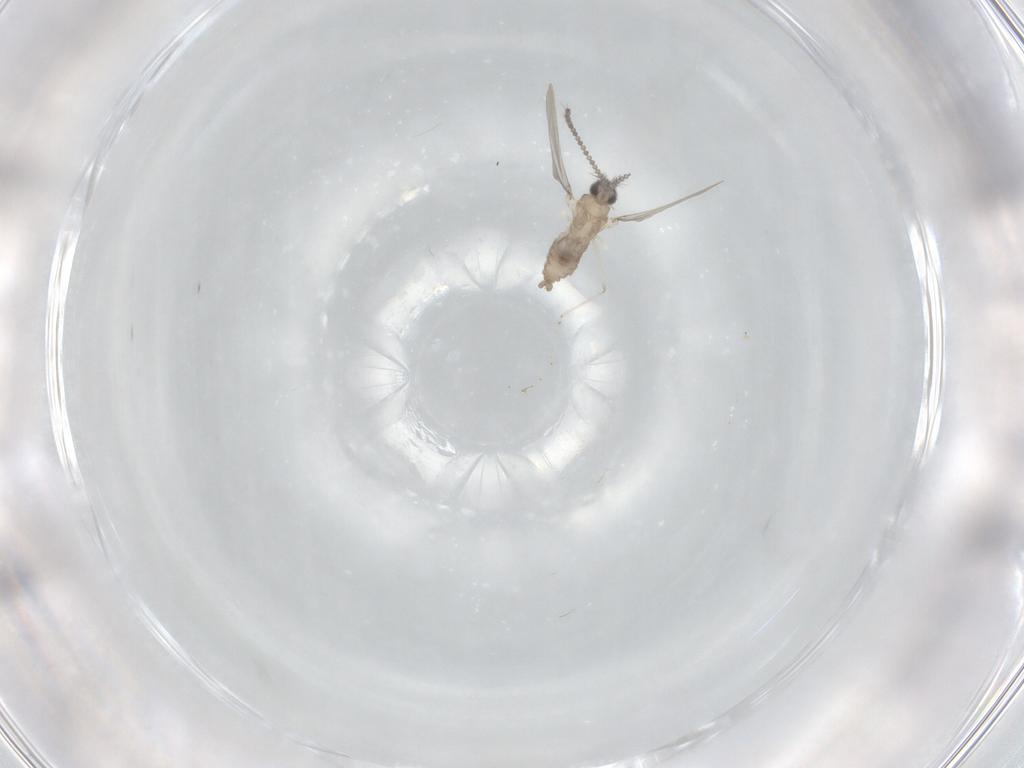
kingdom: Animalia
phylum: Arthropoda
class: Insecta
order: Diptera
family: Cecidomyiidae
